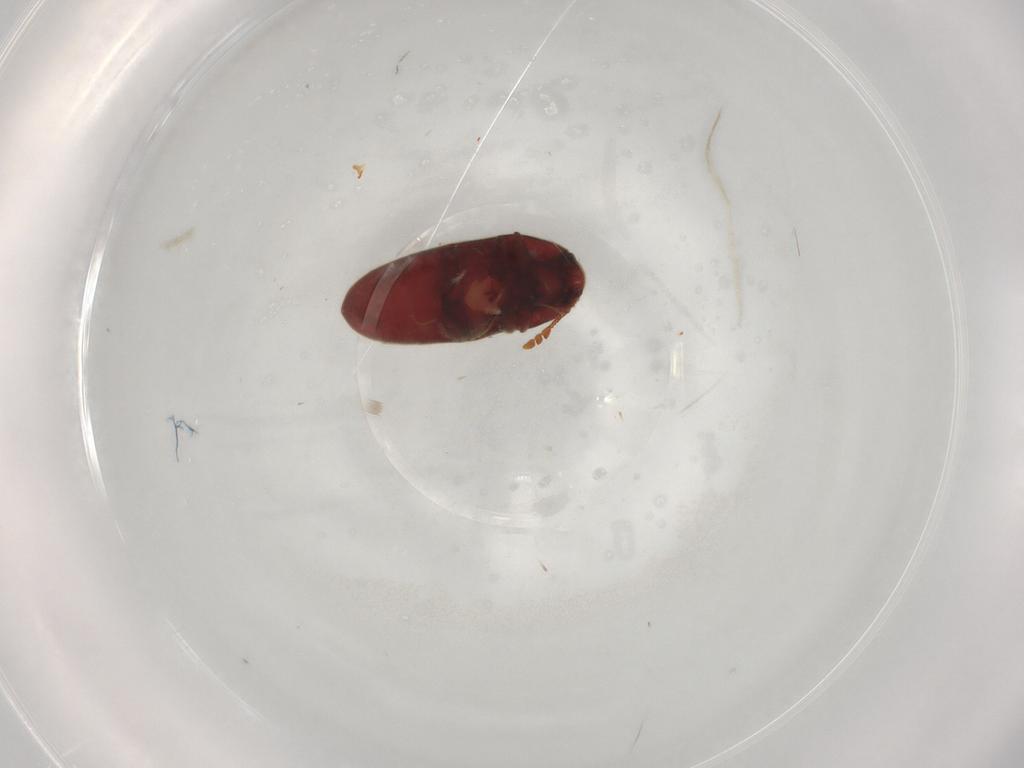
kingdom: Animalia
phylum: Arthropoda
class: Insecta
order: Coleoptera
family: Throscidae
